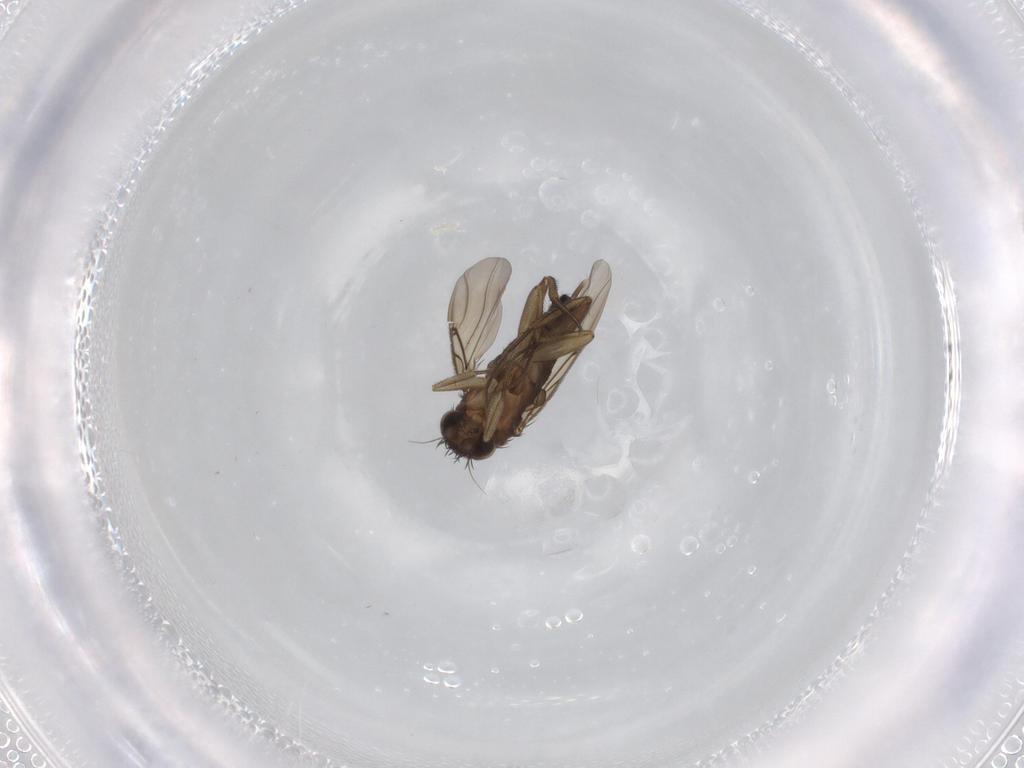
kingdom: Animalia
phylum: Arthropoda
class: Insecta
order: Diptera
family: Phoridae
